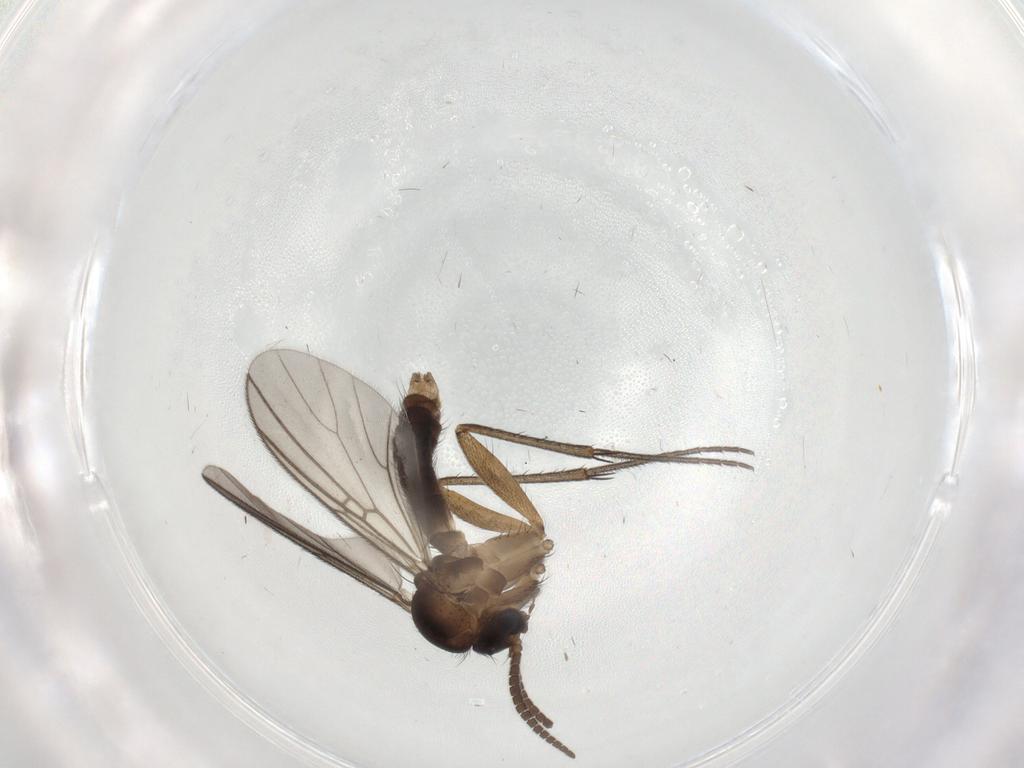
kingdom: Animalia
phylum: Arthropoda
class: Insecta
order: Diptera
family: Mycetophilidae
